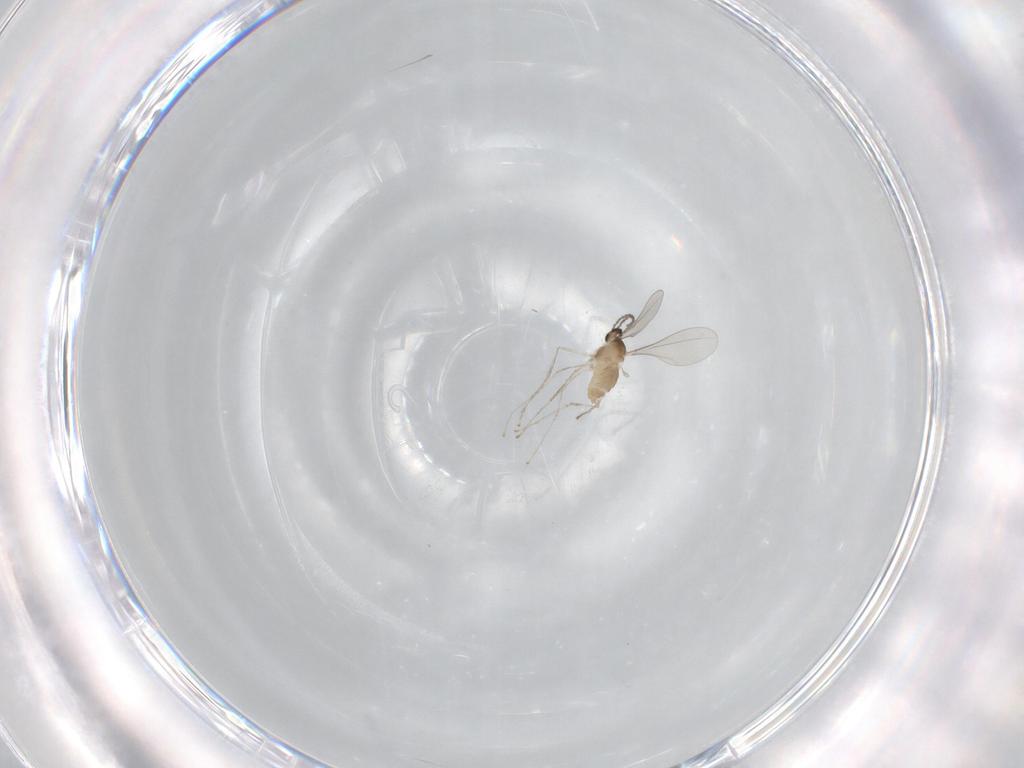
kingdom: Animalia
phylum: Arthropoda
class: Insecta
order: Diptera
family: Cecidomyiidae
